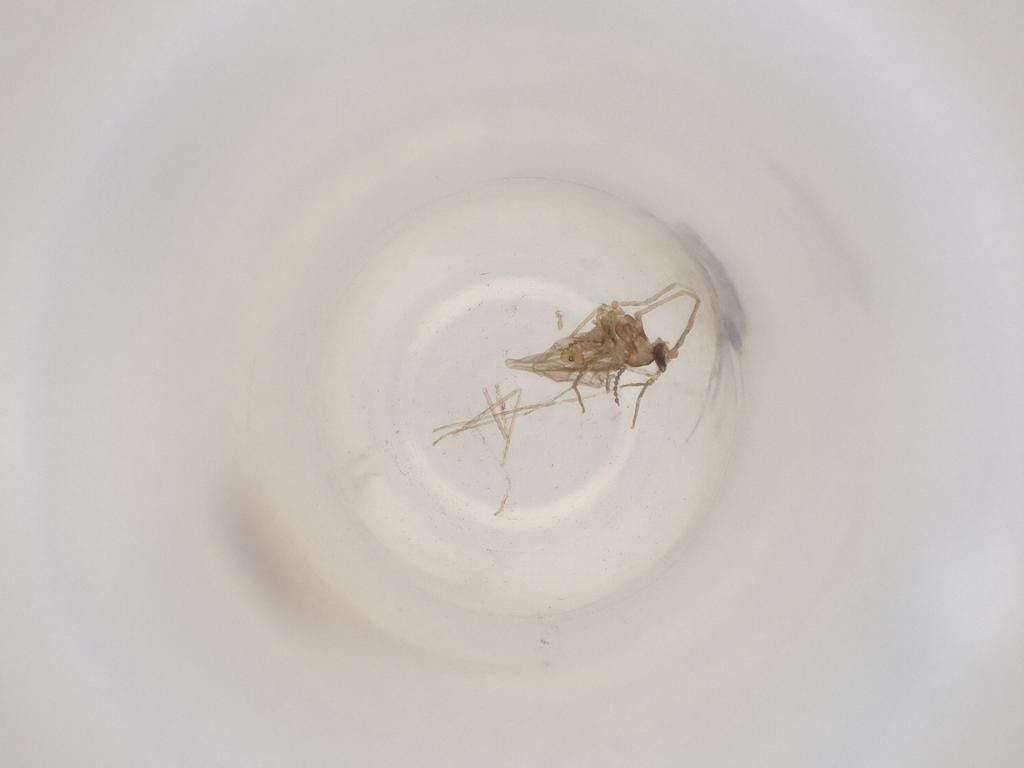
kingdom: Animalia
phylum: Arthropoda
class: Insecta
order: Diptera
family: Cecidomyiidae
